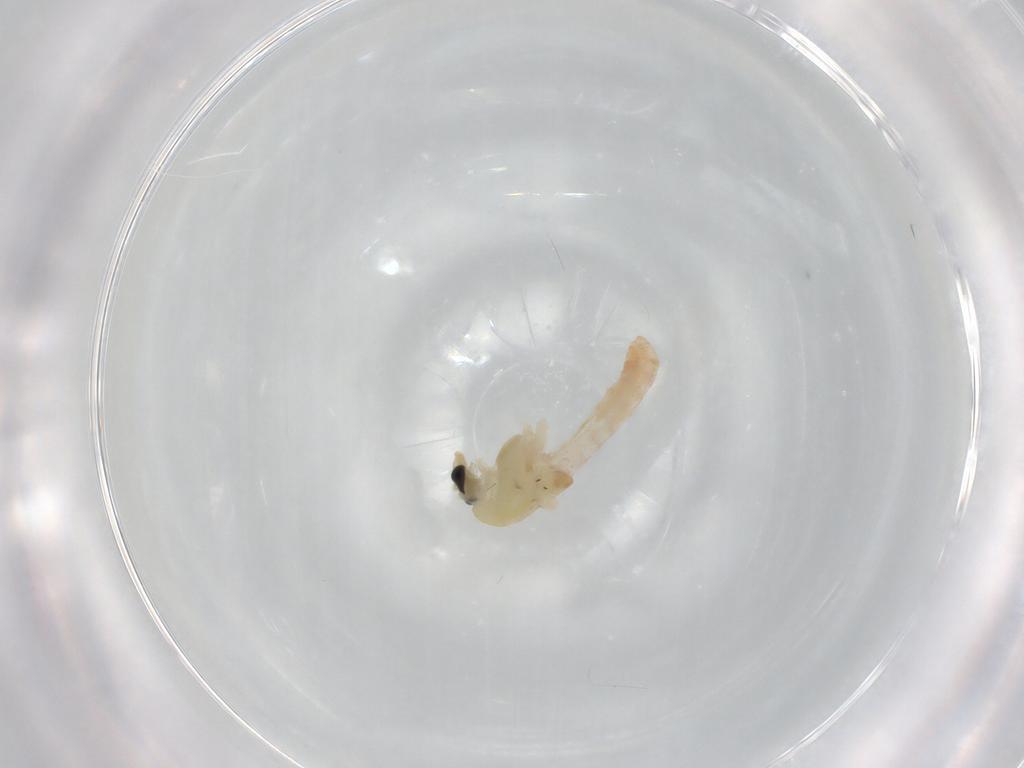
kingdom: Animalia
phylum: Arthropoda
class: Insecta
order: Diptera
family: Chironomidae
